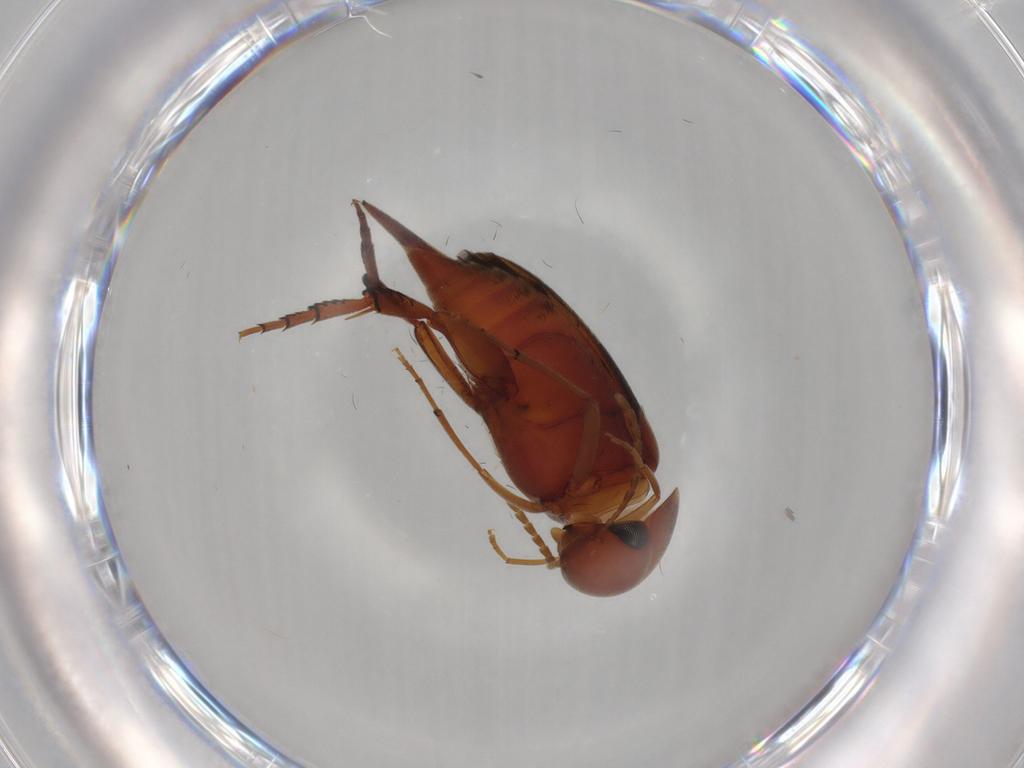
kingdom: Animalia
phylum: Arthropoda
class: Insecta
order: Coleoptera
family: Mordellidae
